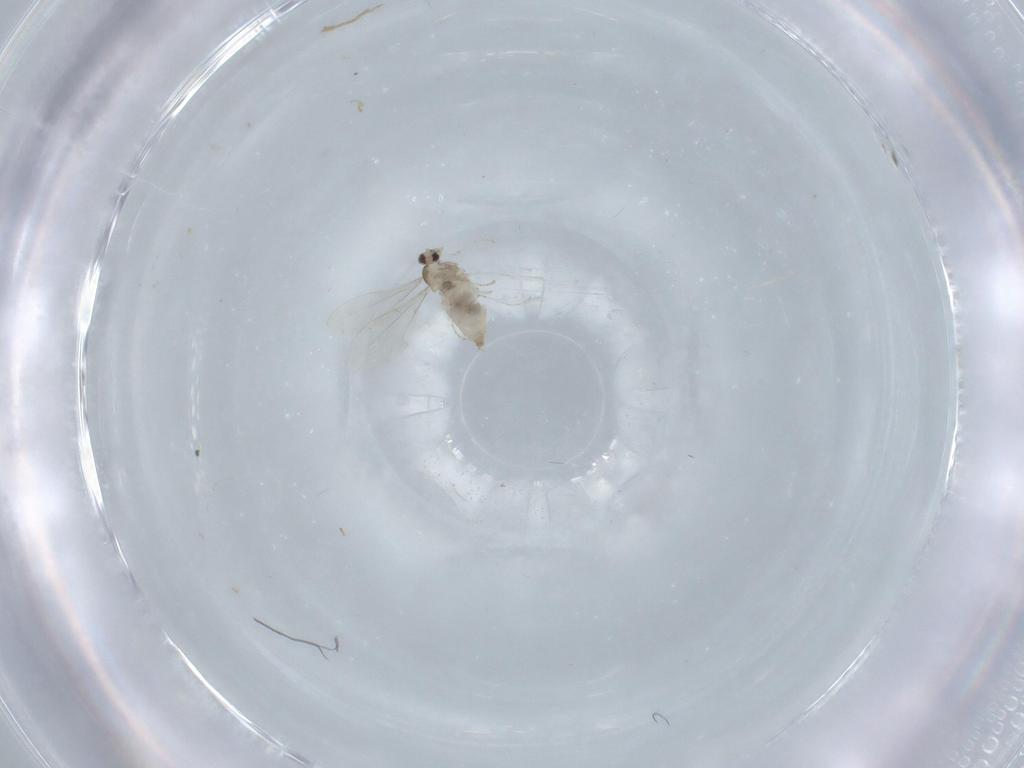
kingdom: Animalia
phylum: Arthropoda
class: Insecta
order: Diptera
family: Cecidomyiidae
